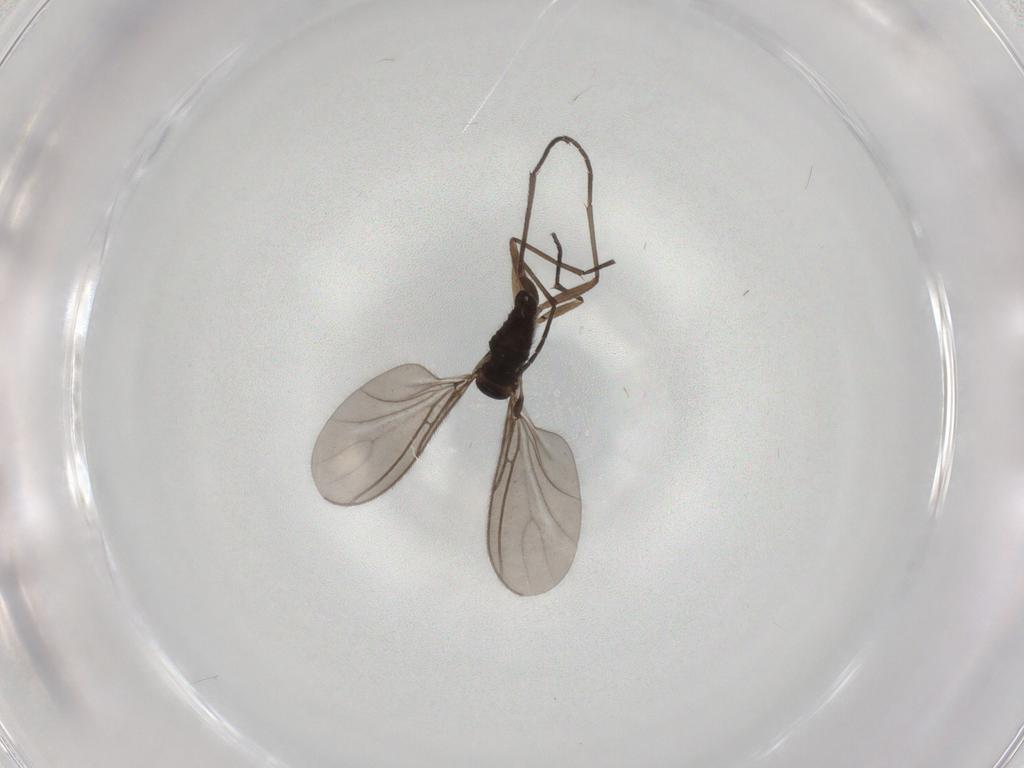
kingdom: Animalia
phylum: Arthropoda
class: Insecta
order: Diptera
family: Sciaridae
